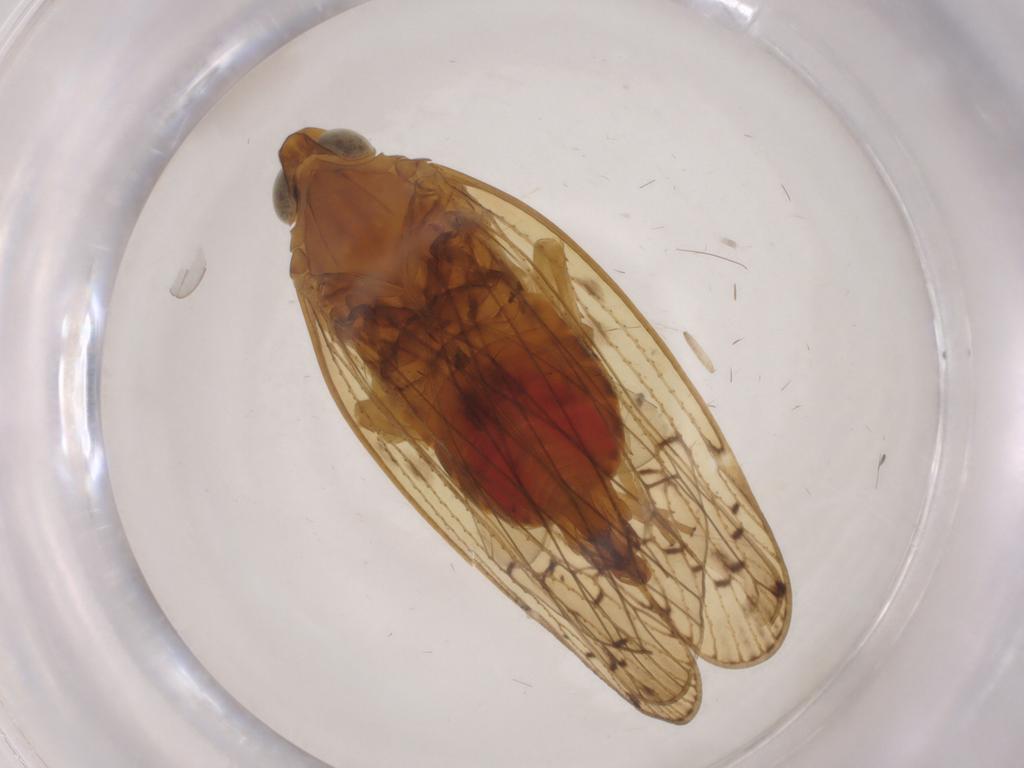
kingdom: Animalia
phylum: Arthropoda
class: Insecta
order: Hemiptera
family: Cixiidae
